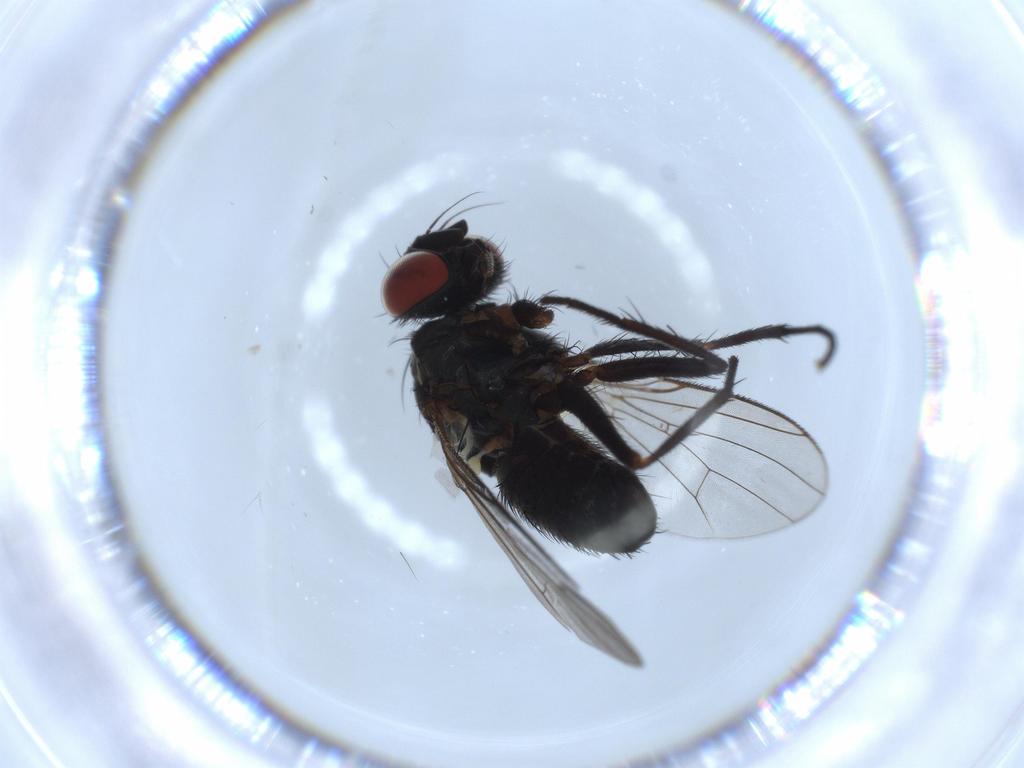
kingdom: Animalia
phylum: Arthropoda
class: Insecta
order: Diptera
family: Muscidae
